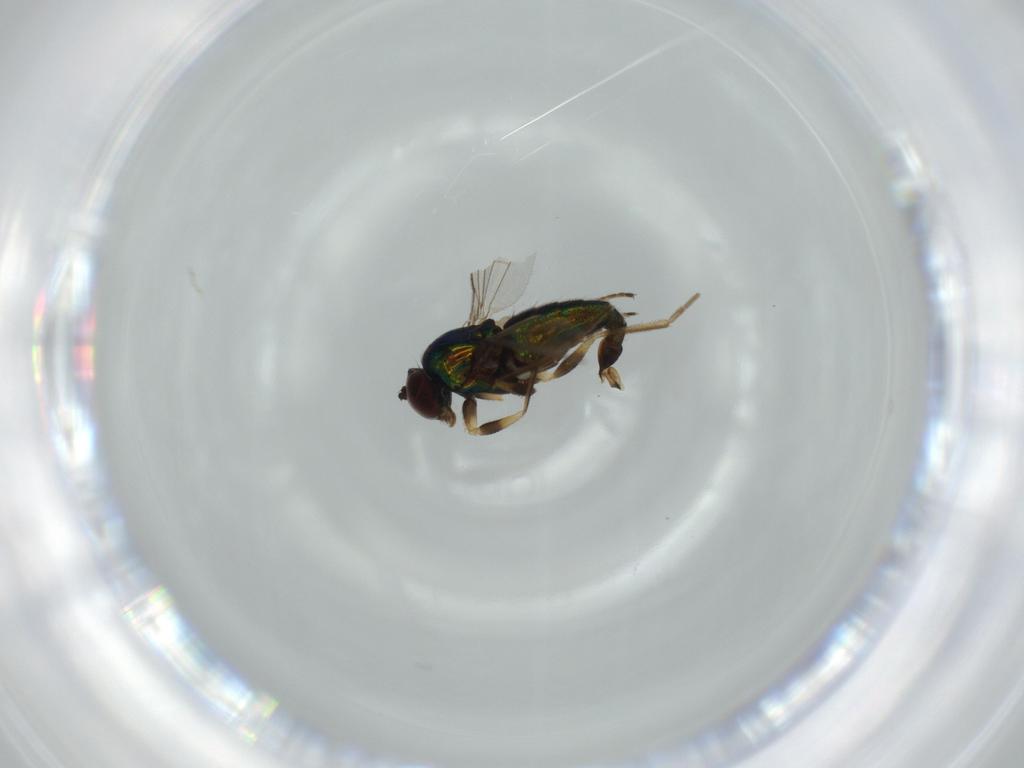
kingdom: Animalia
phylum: Arthropoda
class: Insecta
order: Diptera
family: Dolichopodidae
